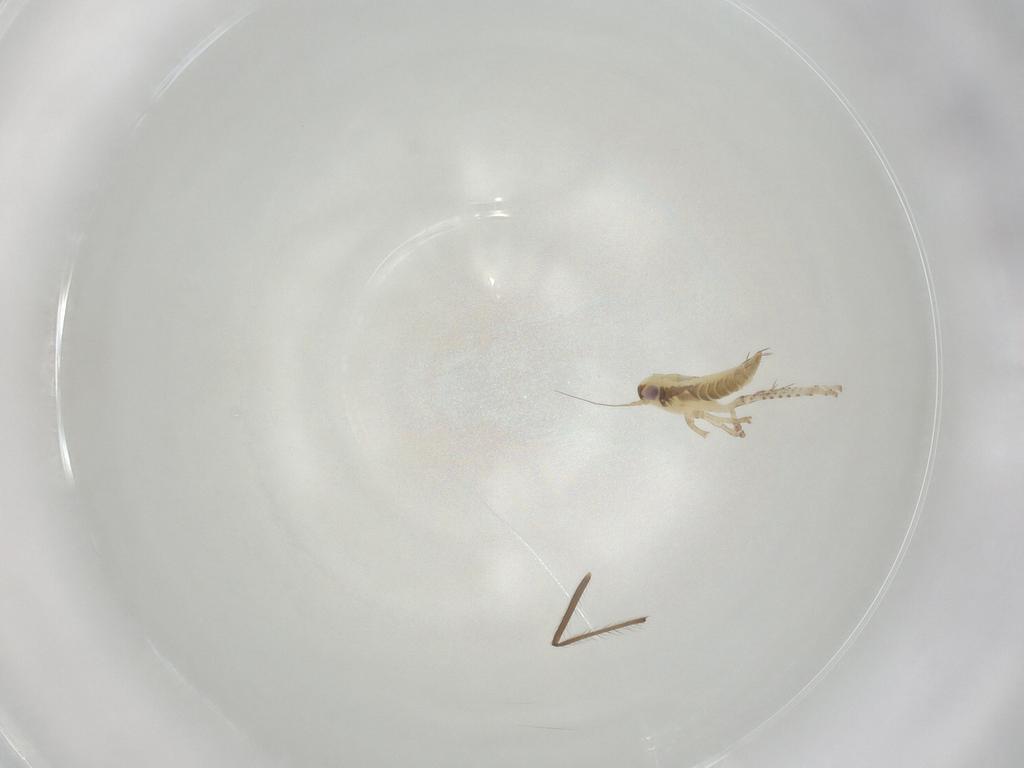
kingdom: Animalia
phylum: Arthropoda
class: Insecta
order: Hemiptera
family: Cicadellidae
